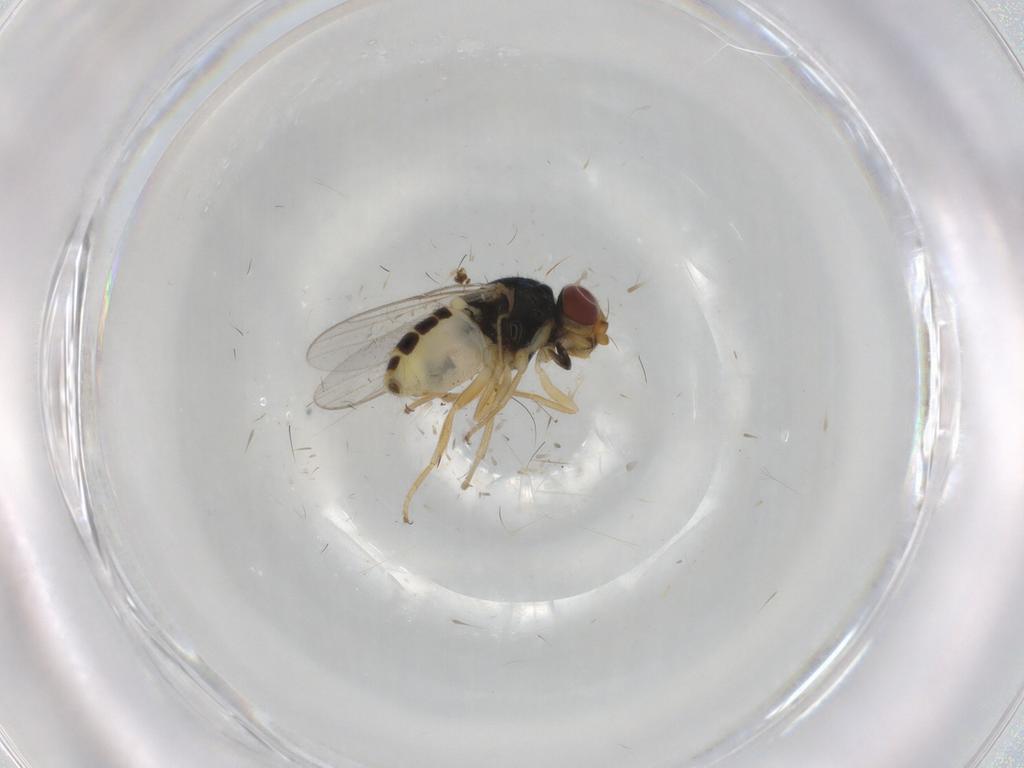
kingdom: Animalia
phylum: Arthropoda
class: Insecta
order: Diptera
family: Chloropidae
